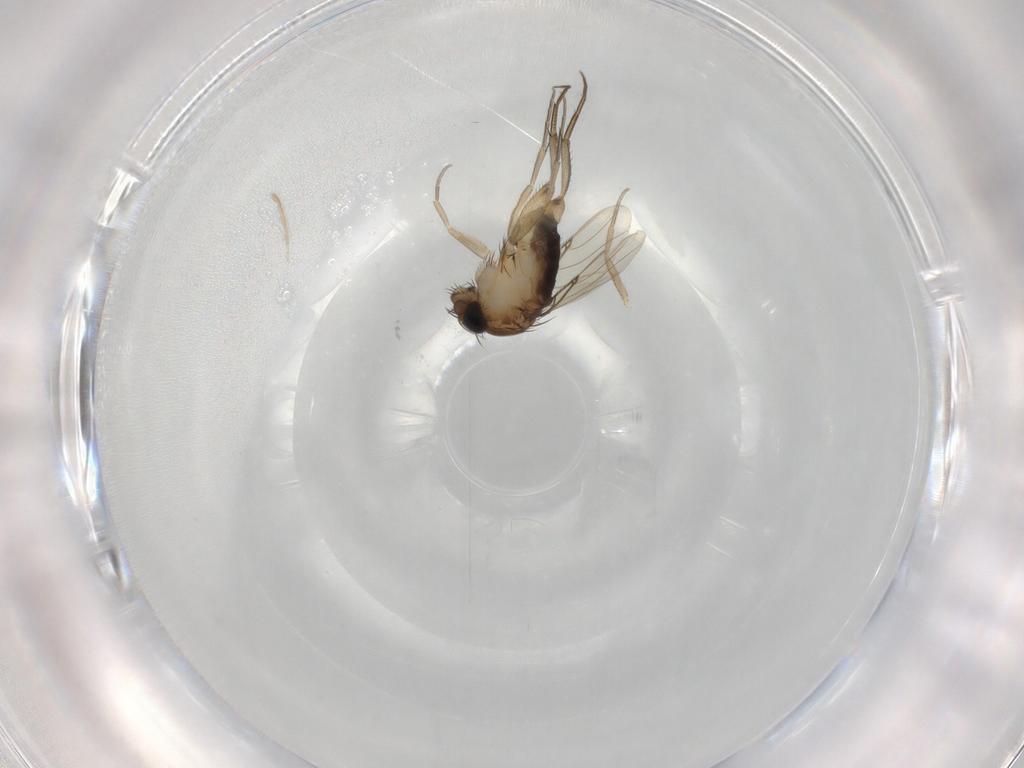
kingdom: Animalia
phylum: Arthropoda
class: Insecta
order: Diptera
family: Phoridae
